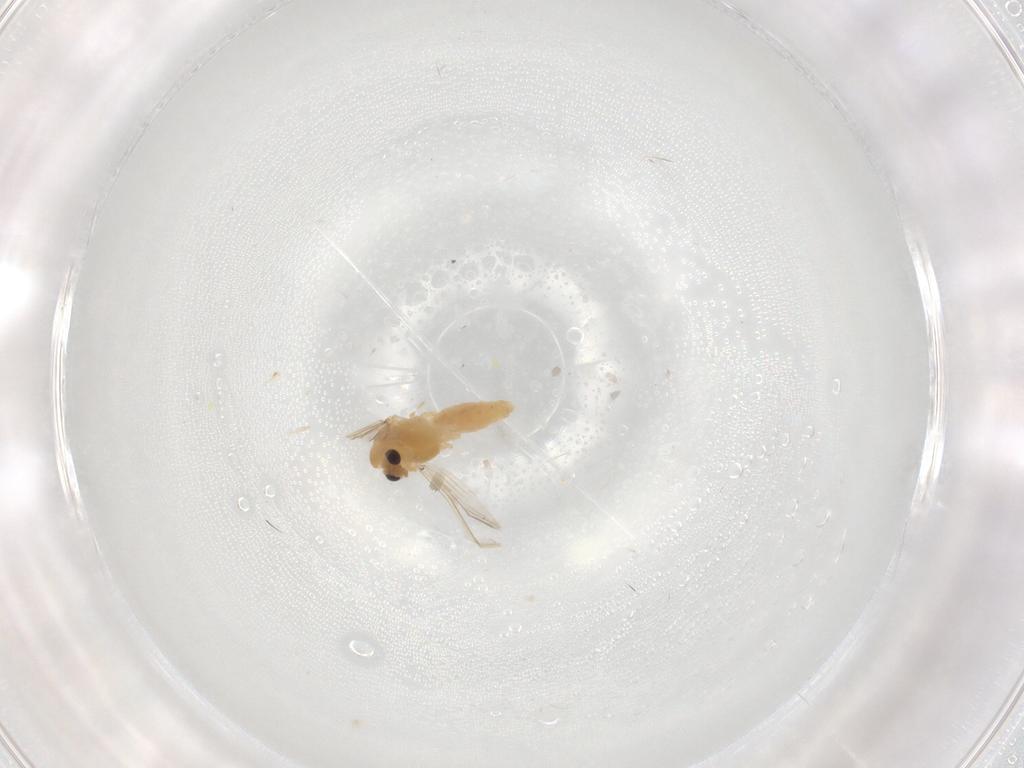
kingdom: Animalia
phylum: Arthropoda
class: Insecta
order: Diptera
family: Chironomidae
